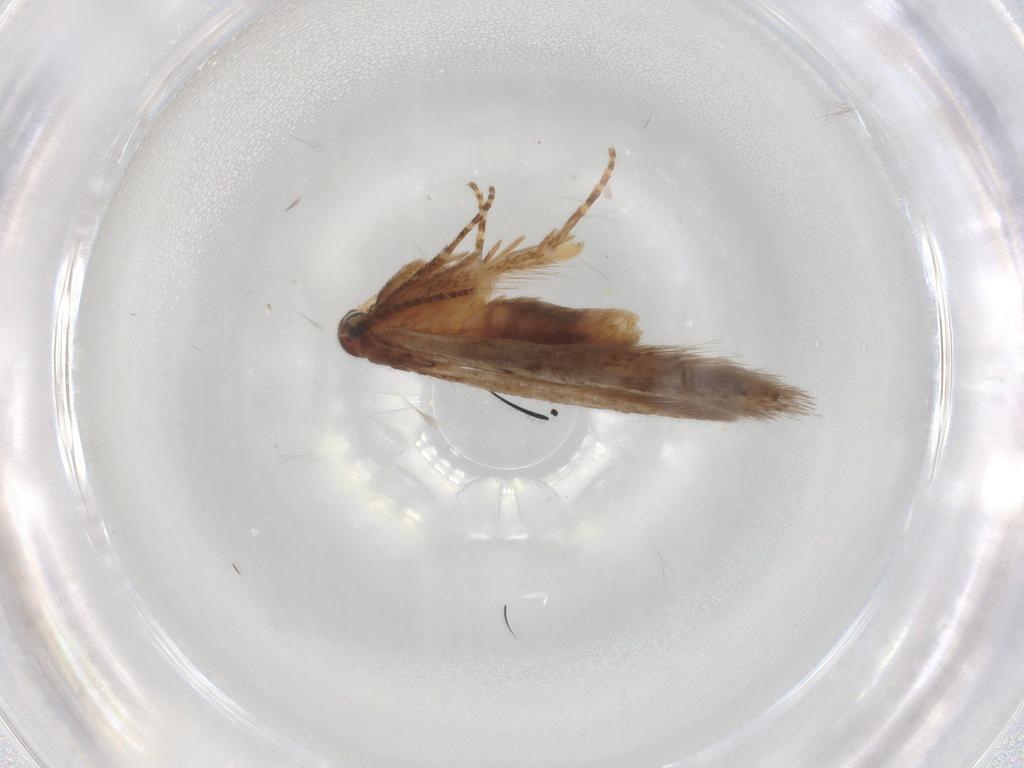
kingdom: Animalia
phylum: Arthropoda
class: Insecta
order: Lepidoptera
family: Gelechiidae
